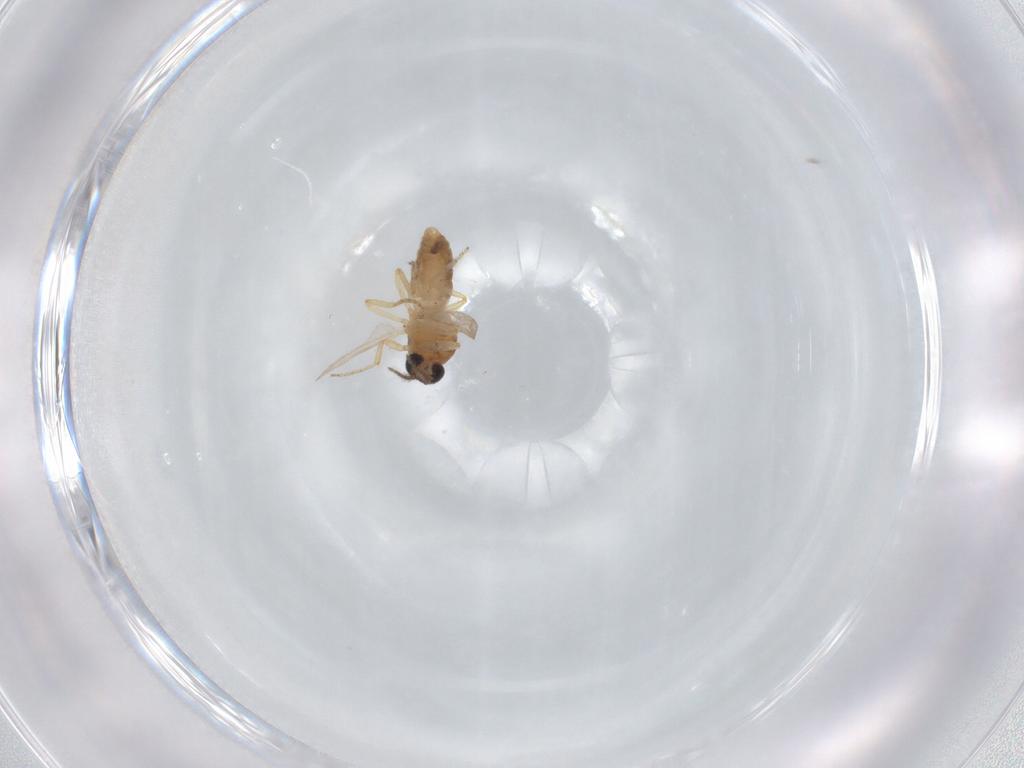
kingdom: Animalia
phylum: Arthropoda
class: Insecta
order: Diptera
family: Ceratopogonidae
